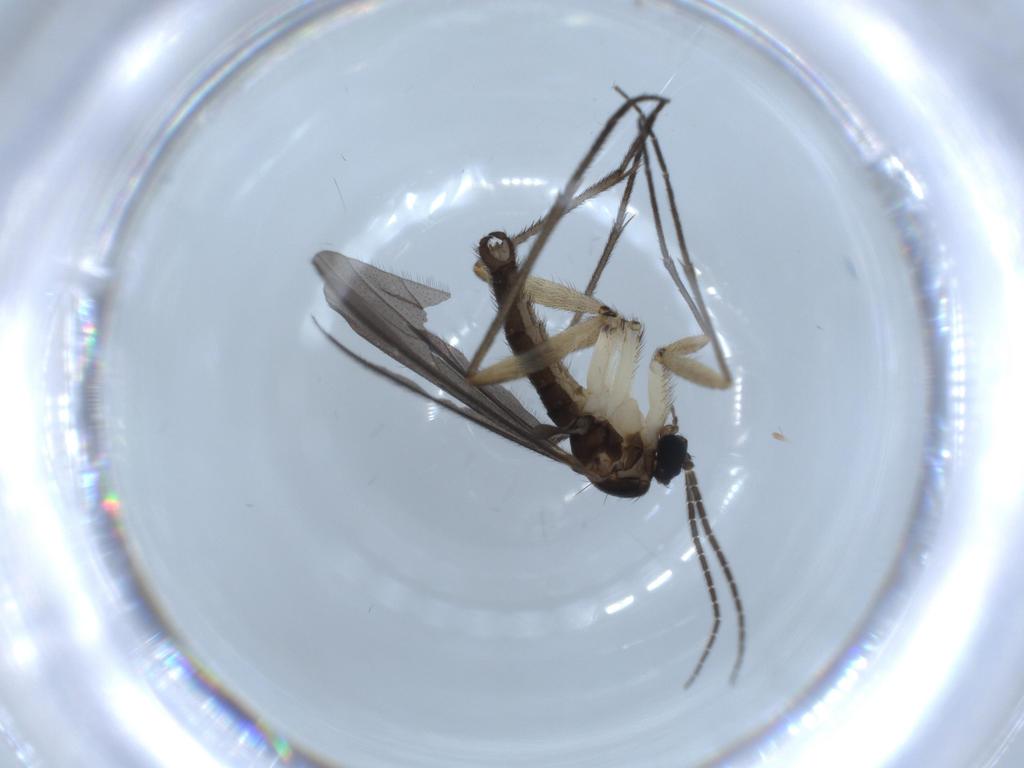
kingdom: Animalia
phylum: Arthropoda
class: Insecta
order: Diptera
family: Sciaridae
